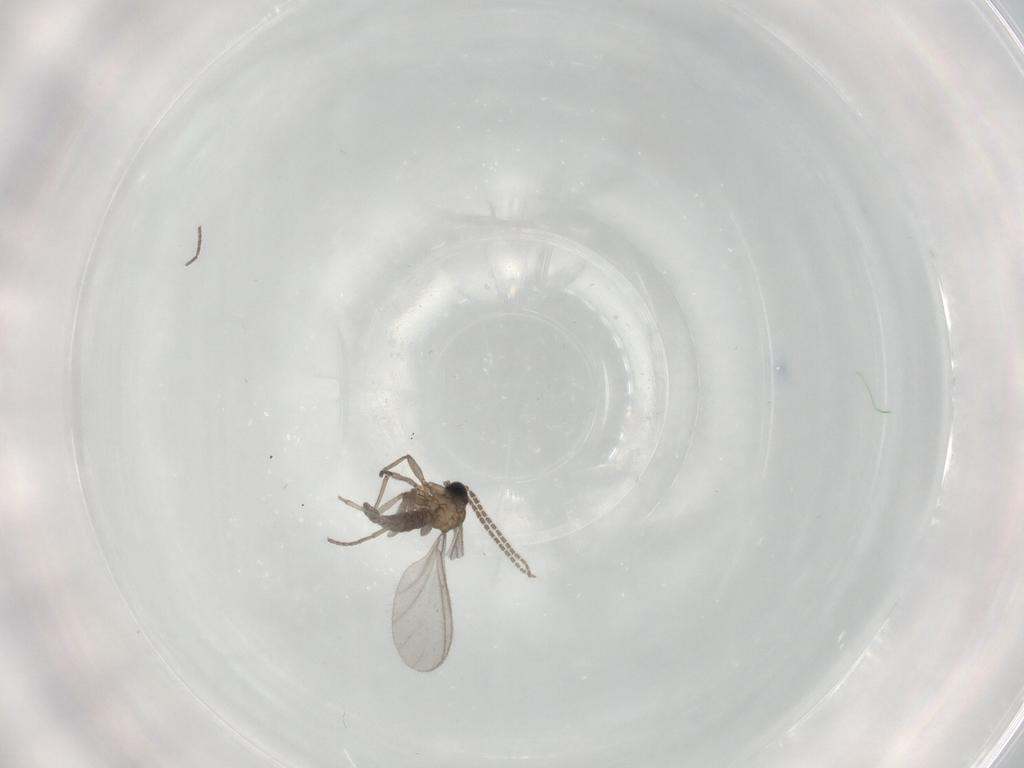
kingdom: Animalia
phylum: Arthropoda
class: Insecta
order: Diptera
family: Sciaridae
